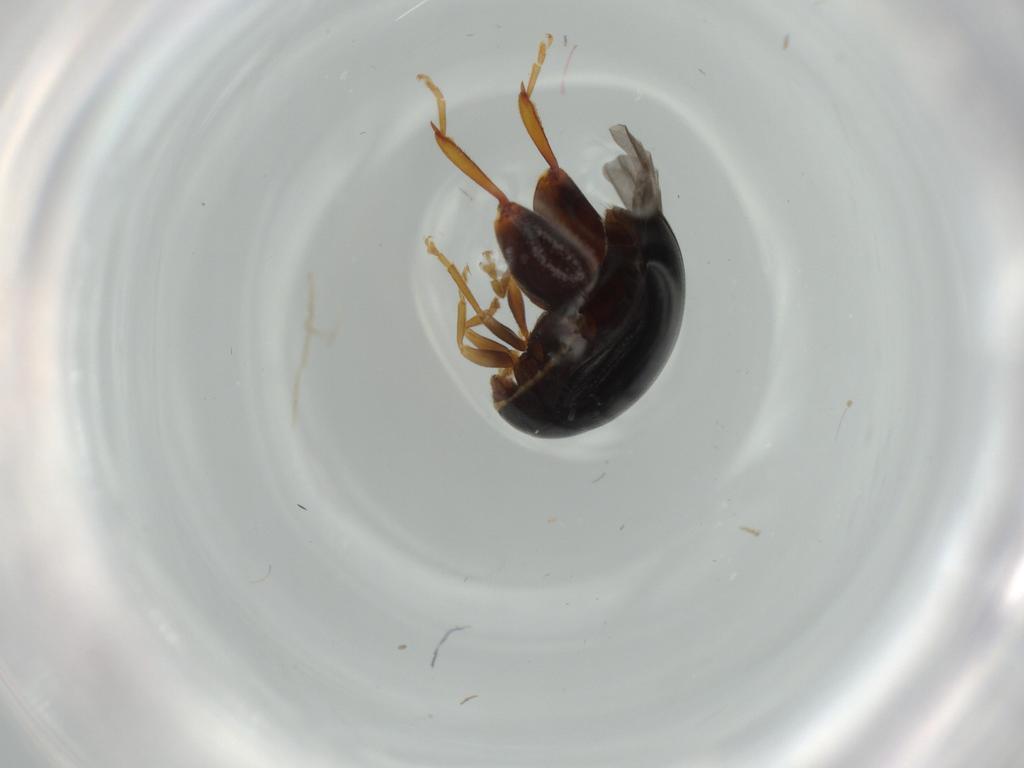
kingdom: Animalia
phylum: Arthropoda
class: Insecta
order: Coleoptera
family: Chrysomelidae
